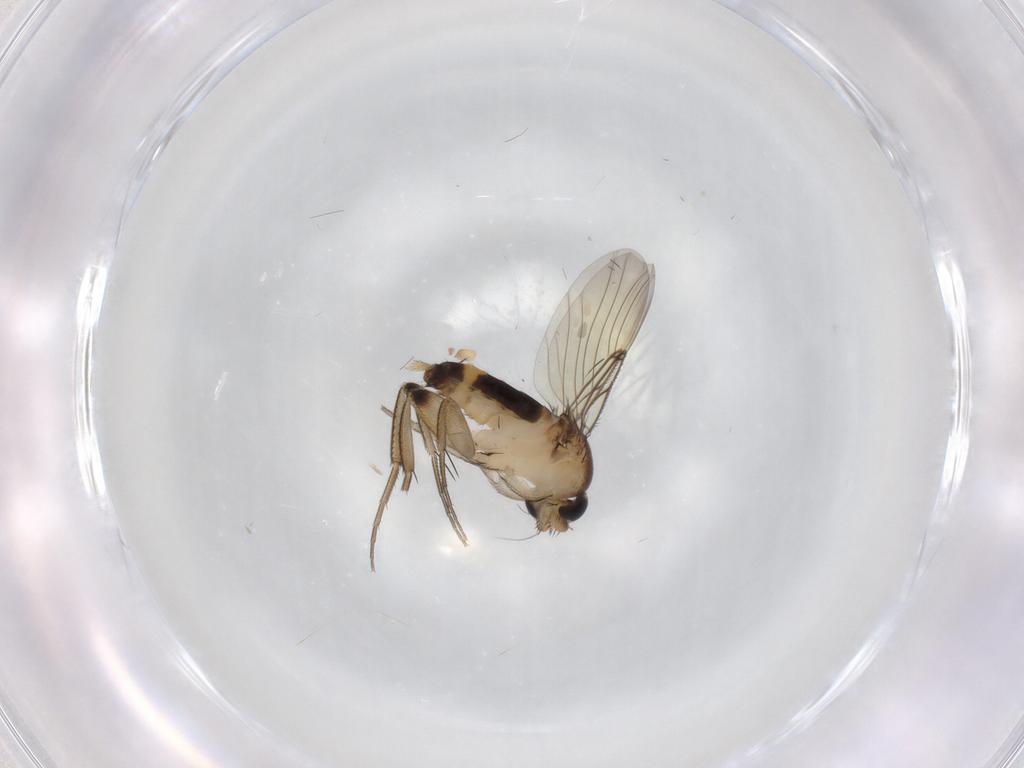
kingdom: Animalia
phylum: Arthropoda
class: Insecta
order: Diptera
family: Phoridae
